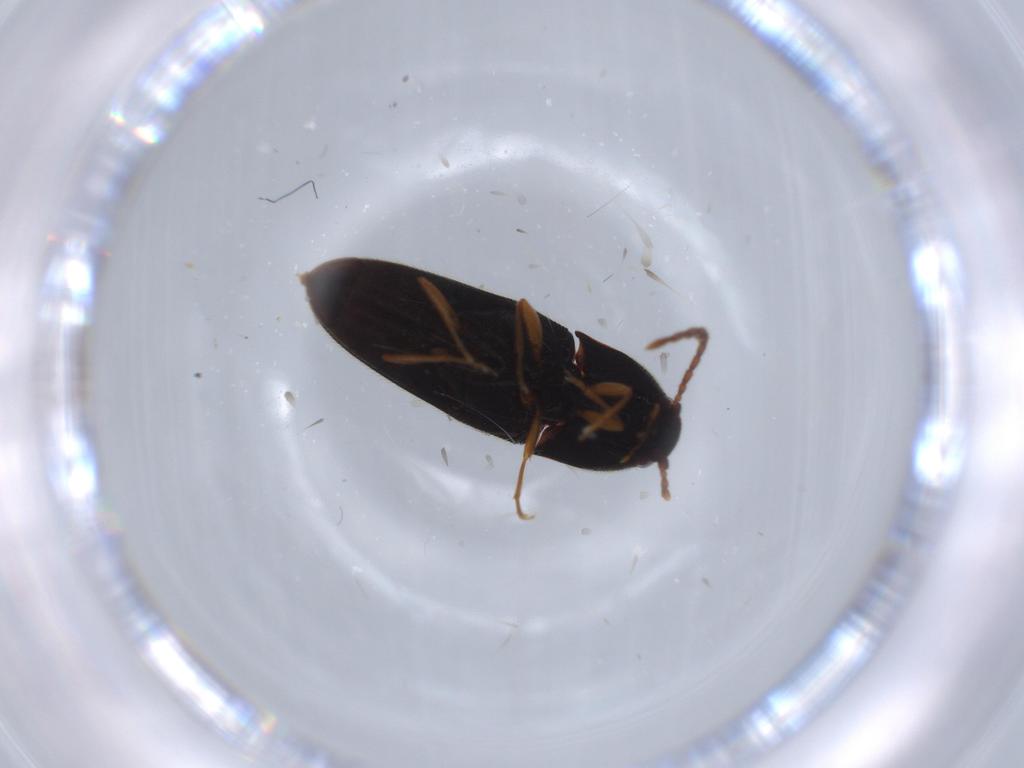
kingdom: Animalia
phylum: Arthropoda
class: Insecta
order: Coleoptera
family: Elateridae
